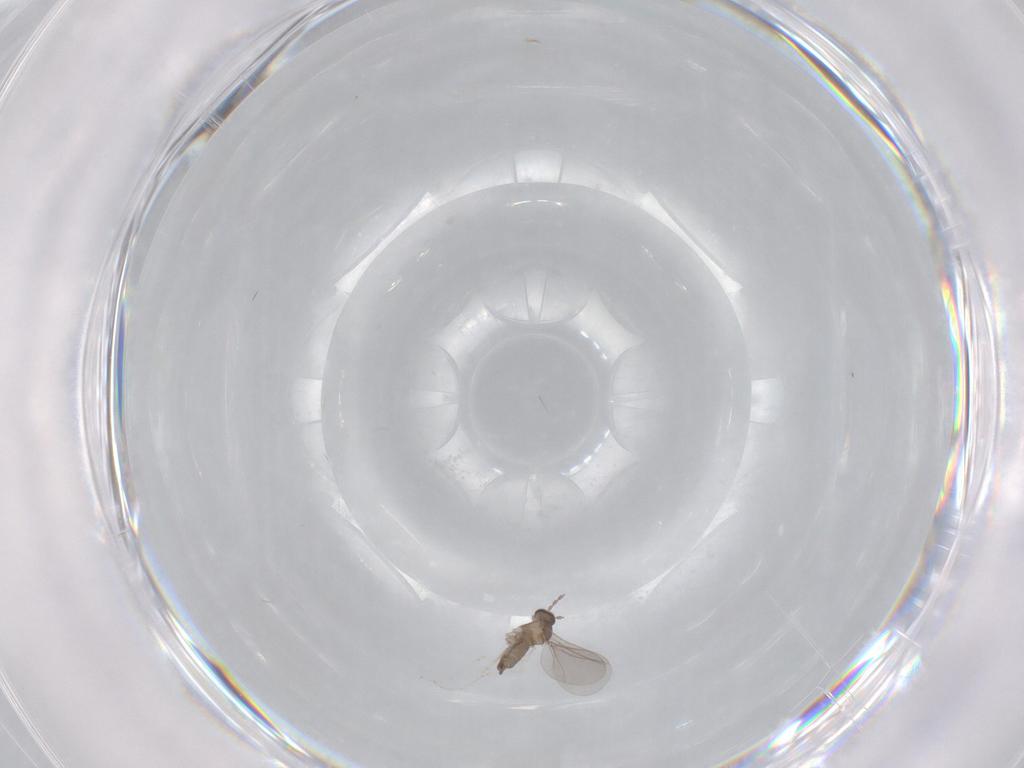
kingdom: Animalia
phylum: Arthropoda
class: Insecta
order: Diptera
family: Cecidomyiidae
